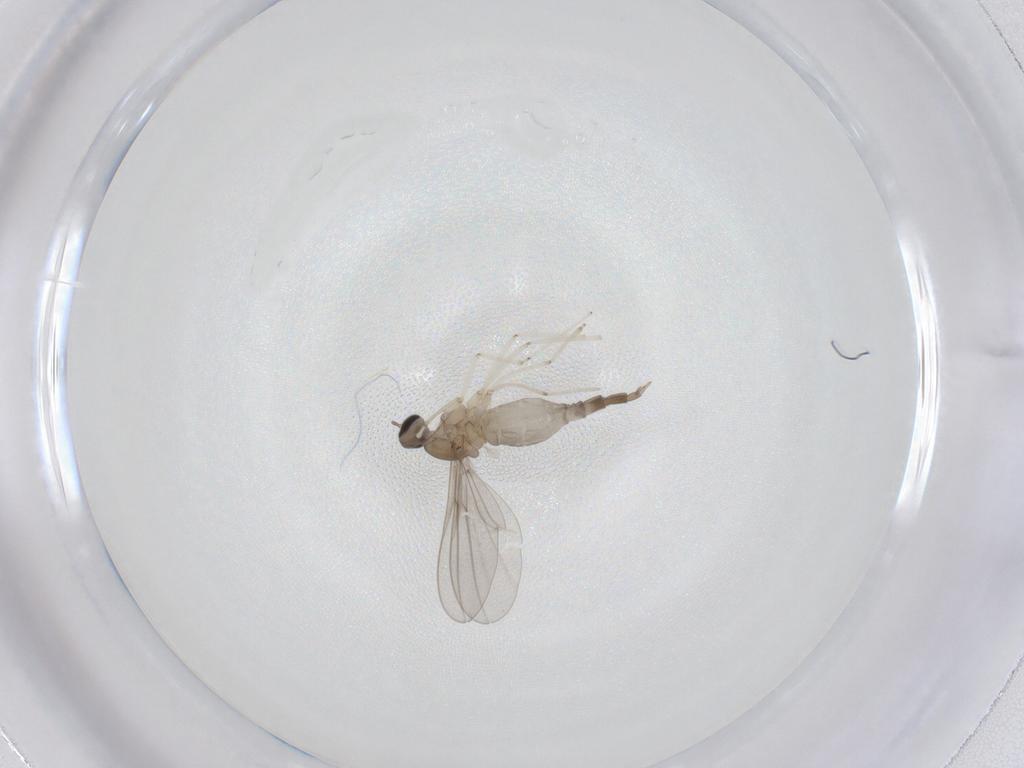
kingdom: Animalia
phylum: Arthropoda
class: Insecta
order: Diptera
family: Cecidomyiidae
